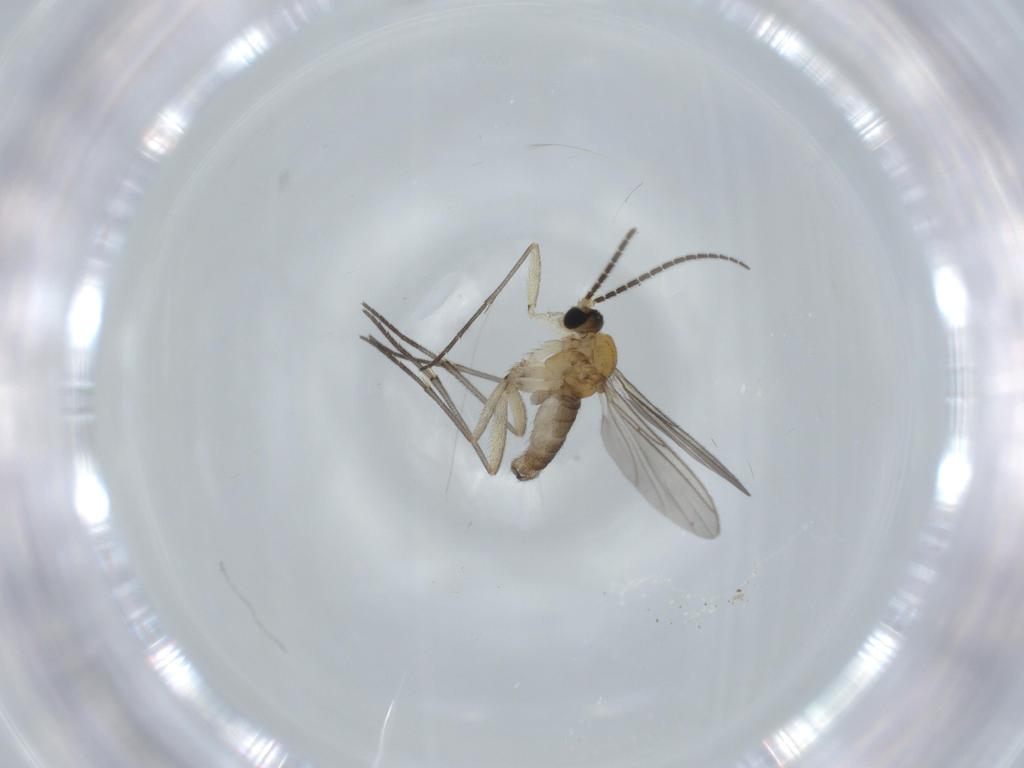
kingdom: Animalia
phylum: Arthropoda
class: Insecta
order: Diptera
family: Sciaridae
